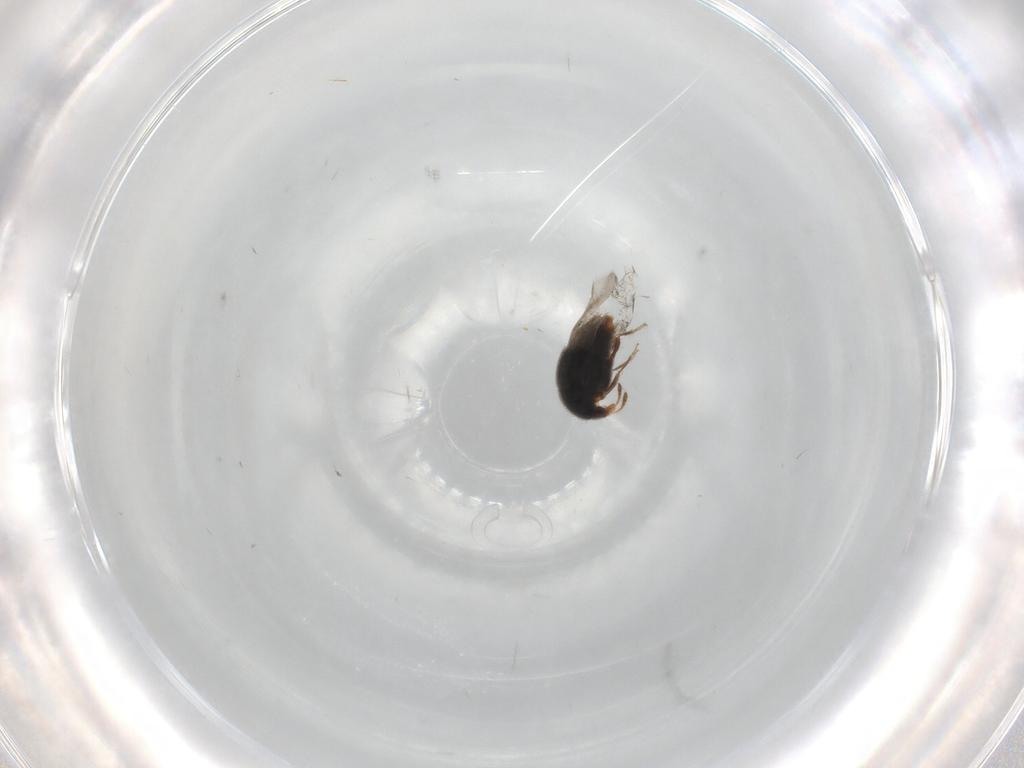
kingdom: Animalia
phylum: Arthropoda
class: Insecta
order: Coleoptera
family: Staphylinidae
